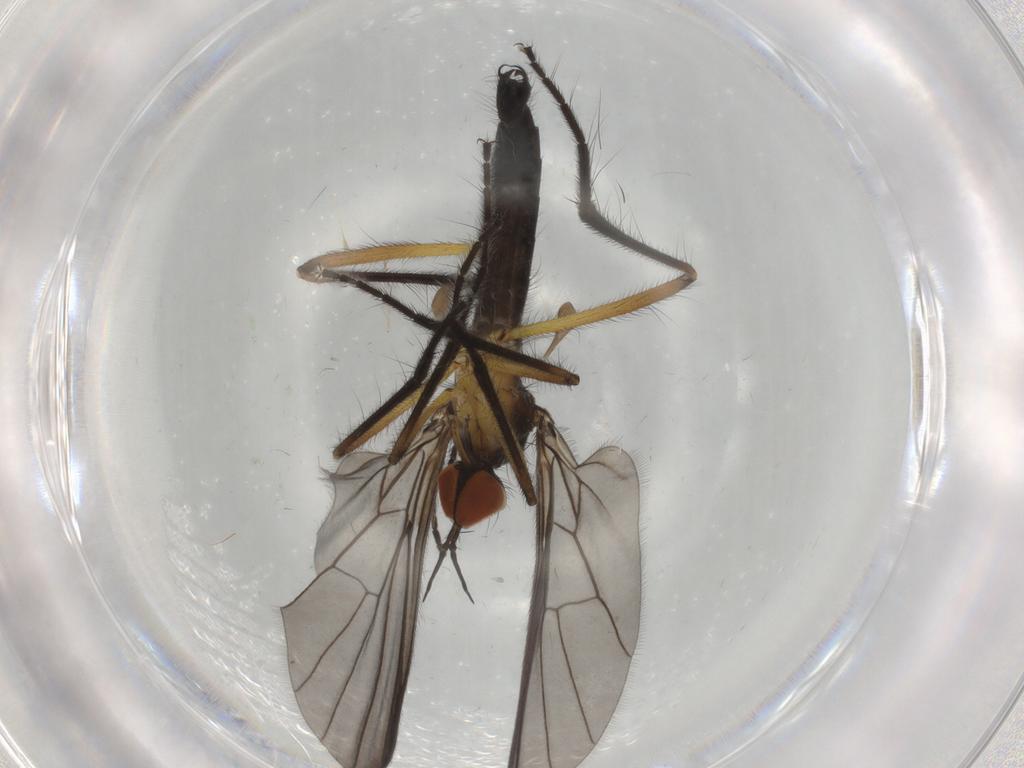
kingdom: Animalia
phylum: Arthropoda
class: Insecta
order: Diptera
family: Empididae
